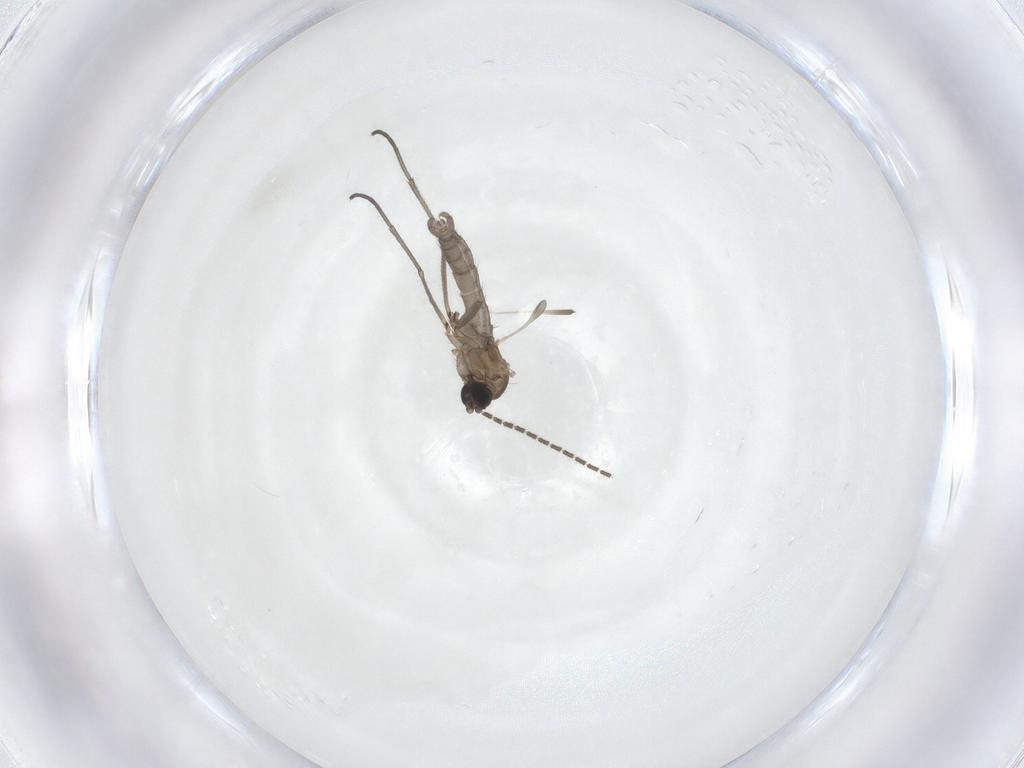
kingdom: Animalia
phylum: Arthropoda
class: Insecta
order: Diptera
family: Sciaridae
